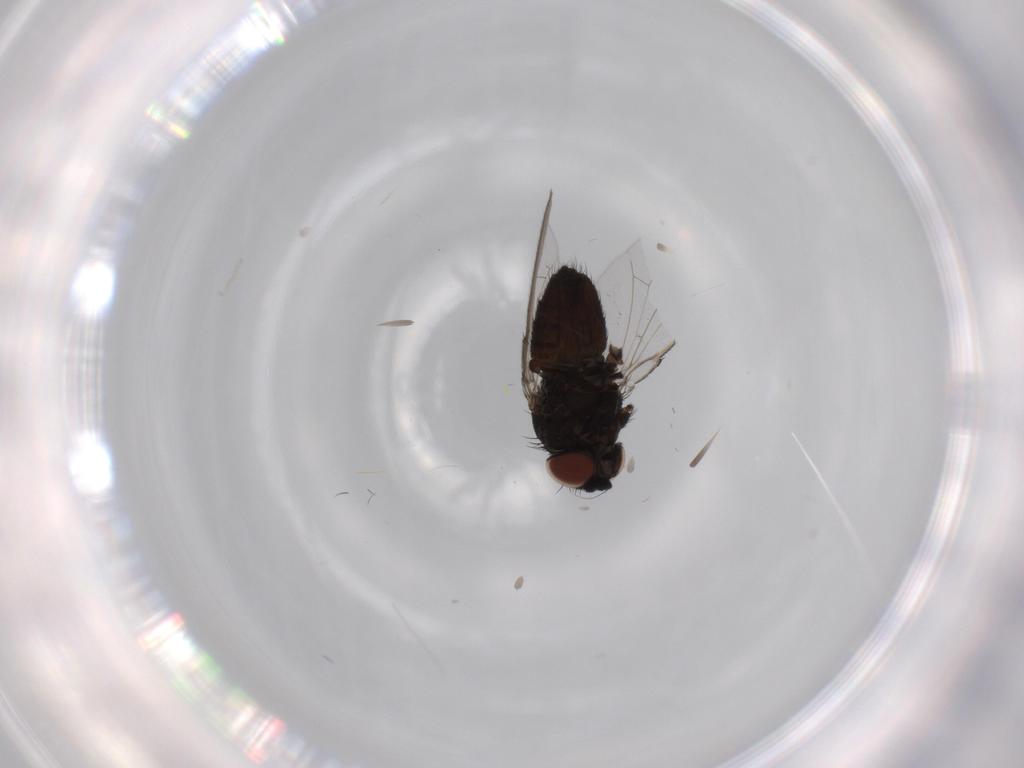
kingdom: Animalia
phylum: Arthropoda
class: Insecta
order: Diptera
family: Milichiidae
